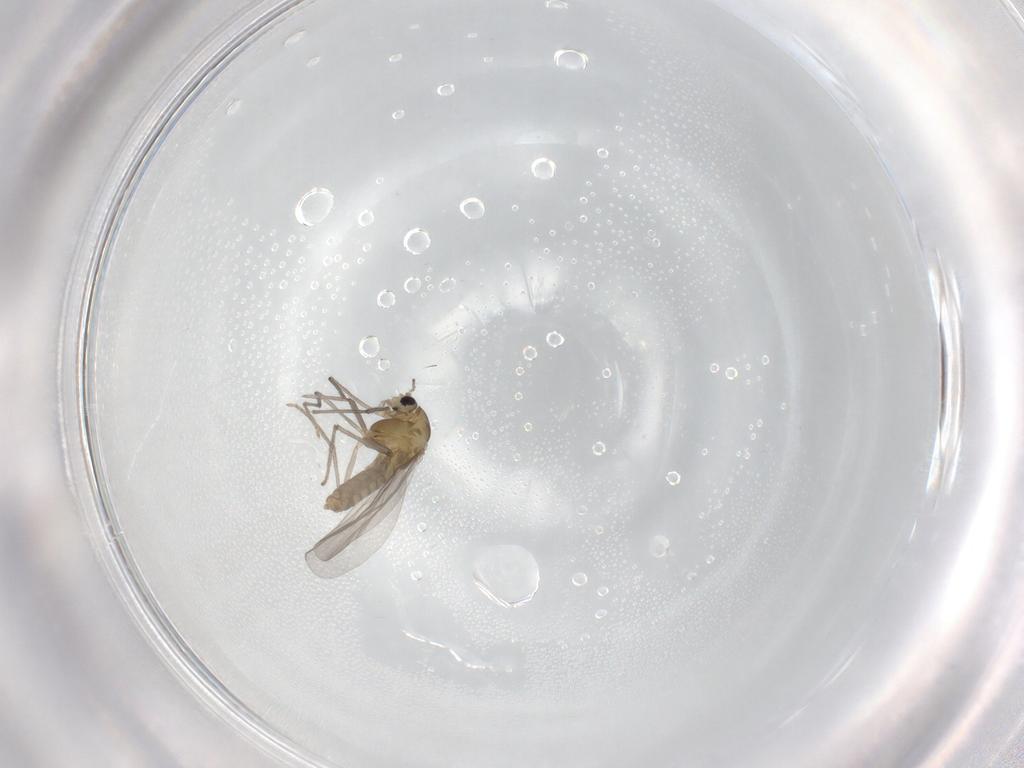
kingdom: Animalia
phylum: Arthropoda
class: Insecta
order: Diptera
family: Chironomidae
